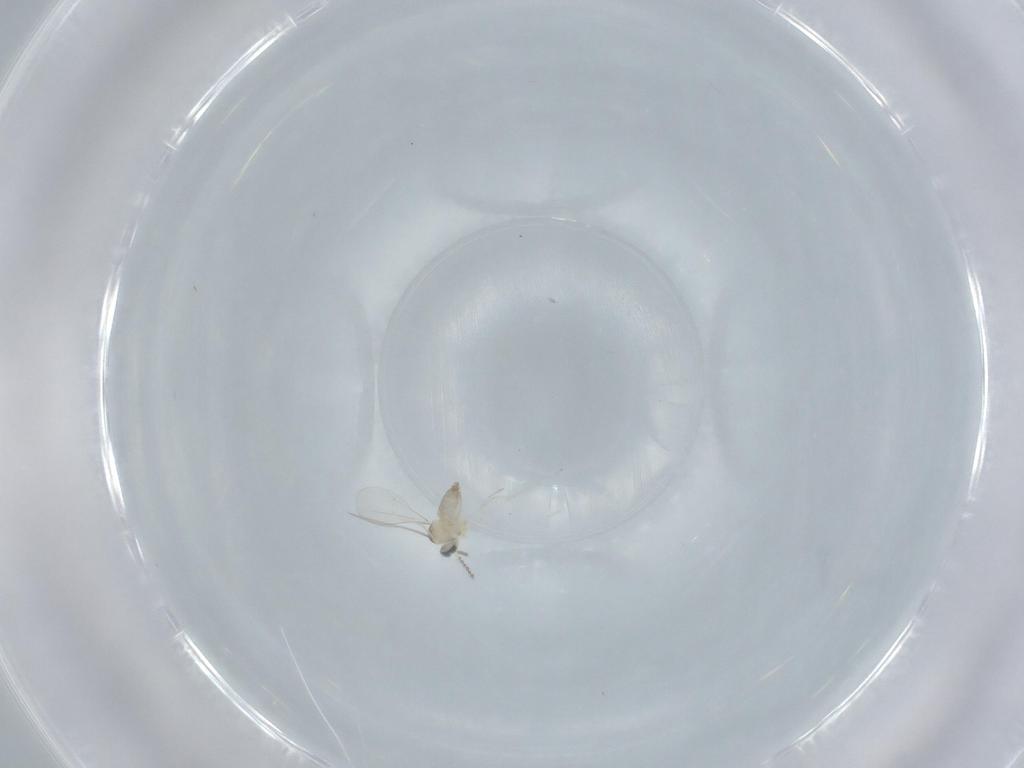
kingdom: Animalia
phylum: Arthropoda
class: Insecta
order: Diptera
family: Cecidomyiidae
